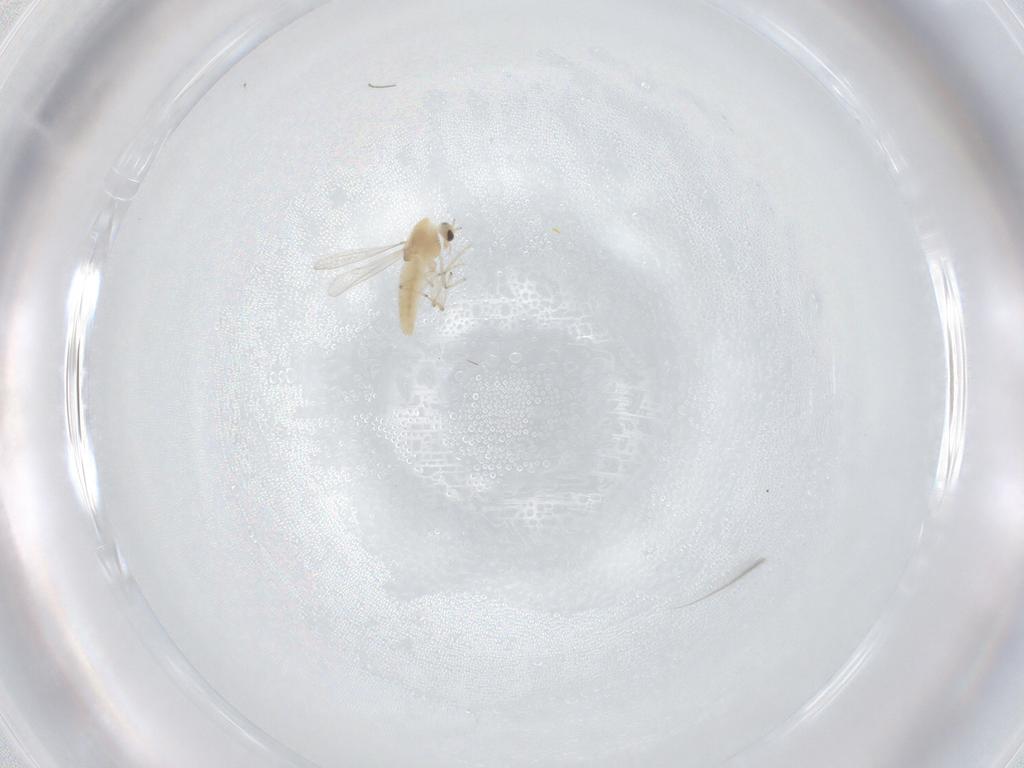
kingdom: Animalia
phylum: Arthropoda
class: Insecta
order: Diptera
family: Chironomidae
